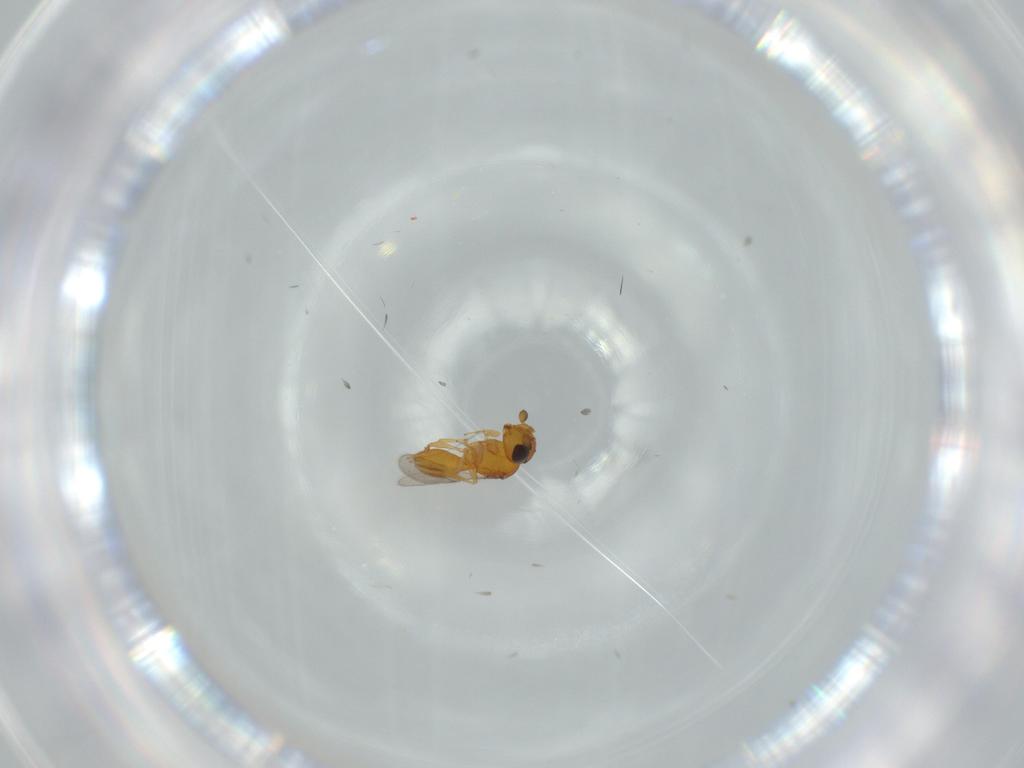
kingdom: Animalia
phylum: Arthropoda
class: Insecta
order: Hymenoptera
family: Scelionidae
